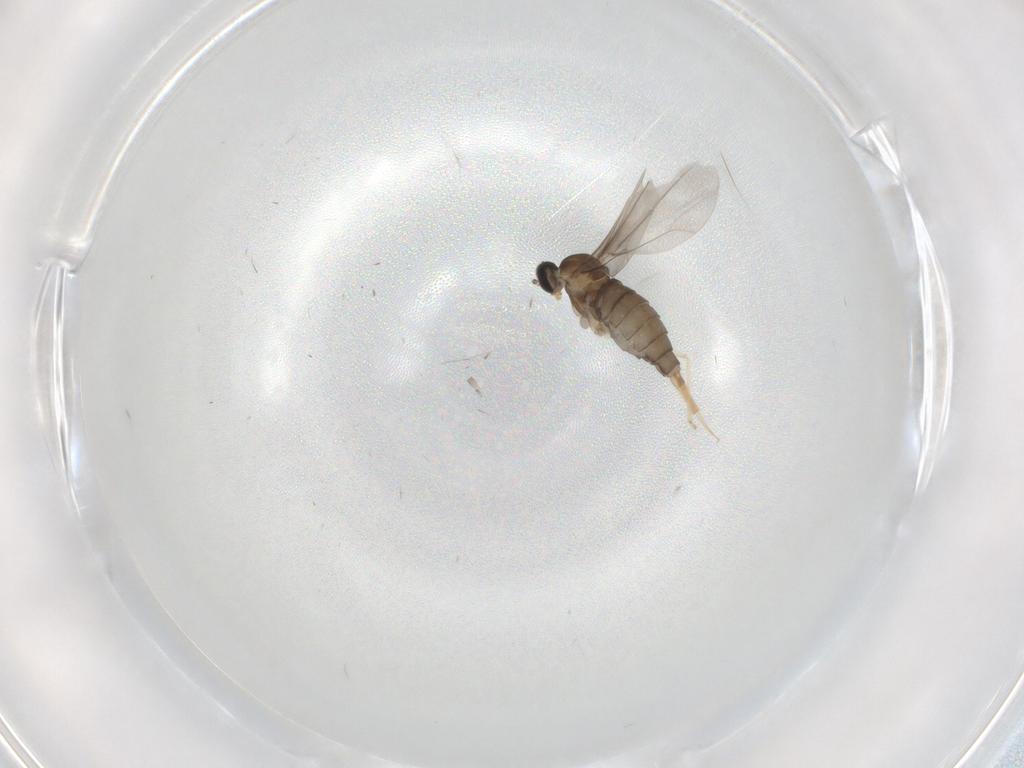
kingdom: Animalia
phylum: Arthropoda
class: Insecta
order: Diptera
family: Cecidomyiidae
